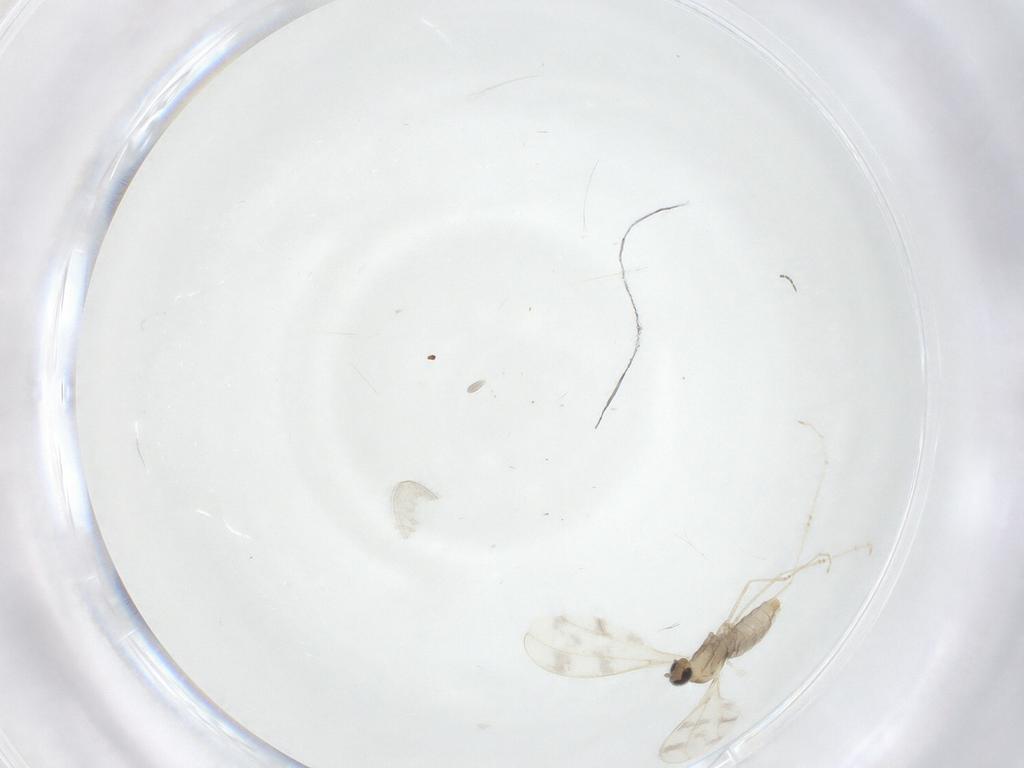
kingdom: Animalia
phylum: Arthropoda
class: Insecta
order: Diptera
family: Cecidomyiidae
